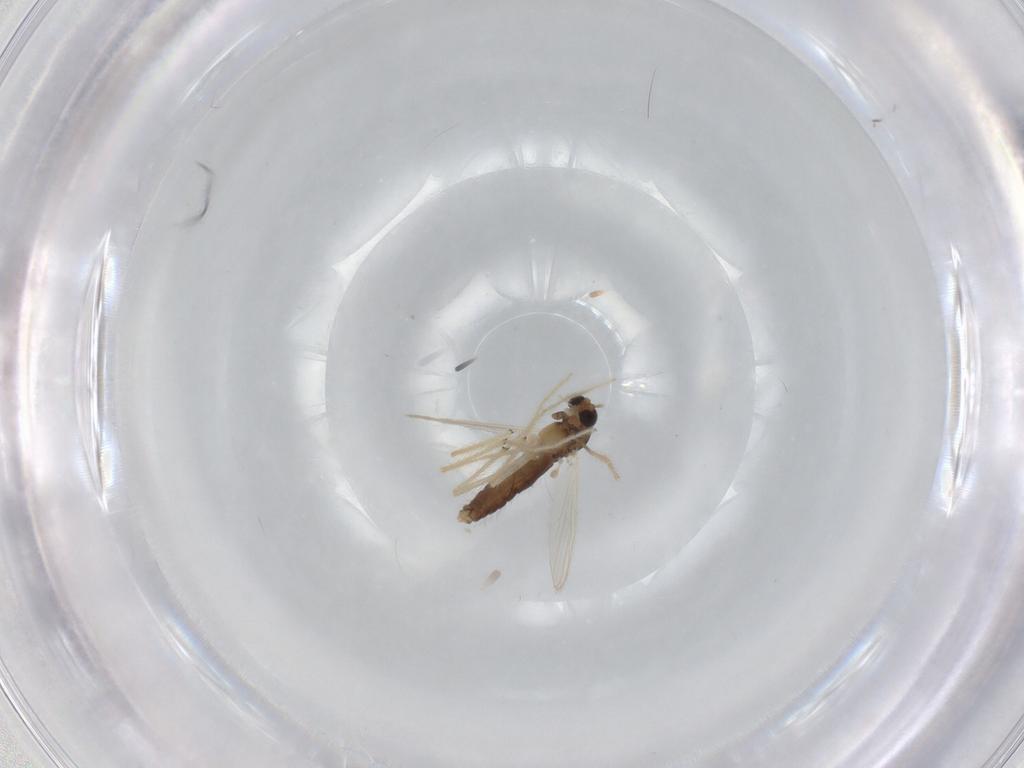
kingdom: Animalia
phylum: Arthropoda
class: Insecta
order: Diptera
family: Chironomidae
